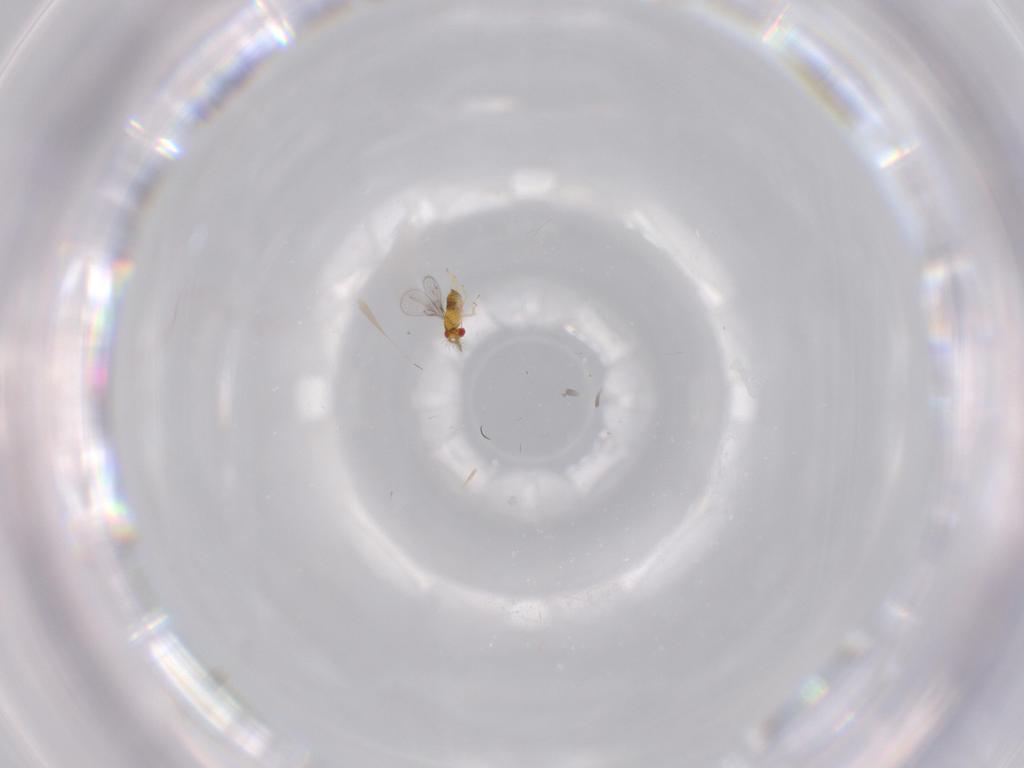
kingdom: Animalia
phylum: Arthropoda
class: Insecta
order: Hymenoptera
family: Trichogrammatidae
